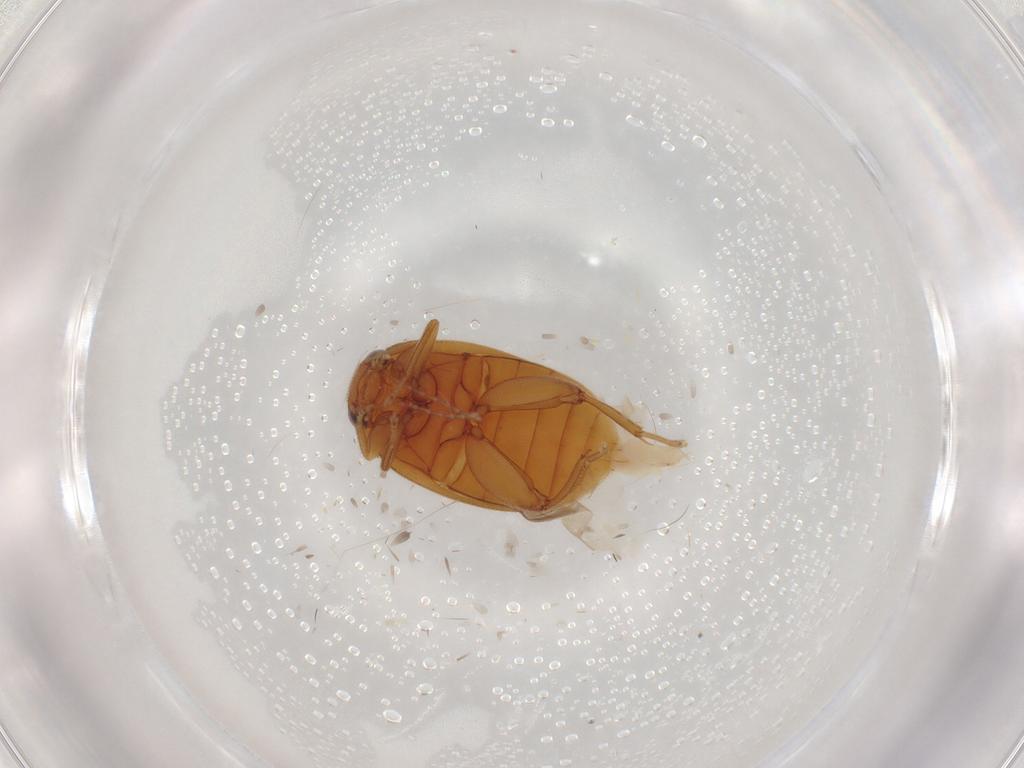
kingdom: Animalia
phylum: Arthropoda
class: Insecta
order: Coleoptera
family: Scirtidae
